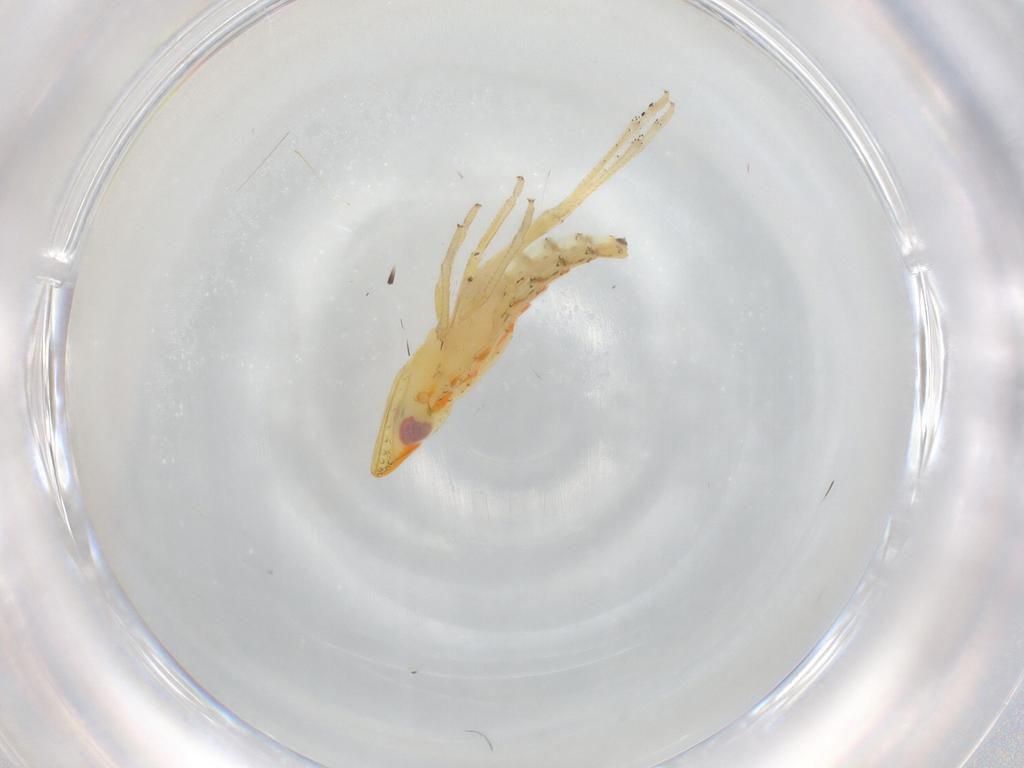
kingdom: Animalia
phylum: Arthropoda
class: Insecta
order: Hemiptera
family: Tropiduchidae
